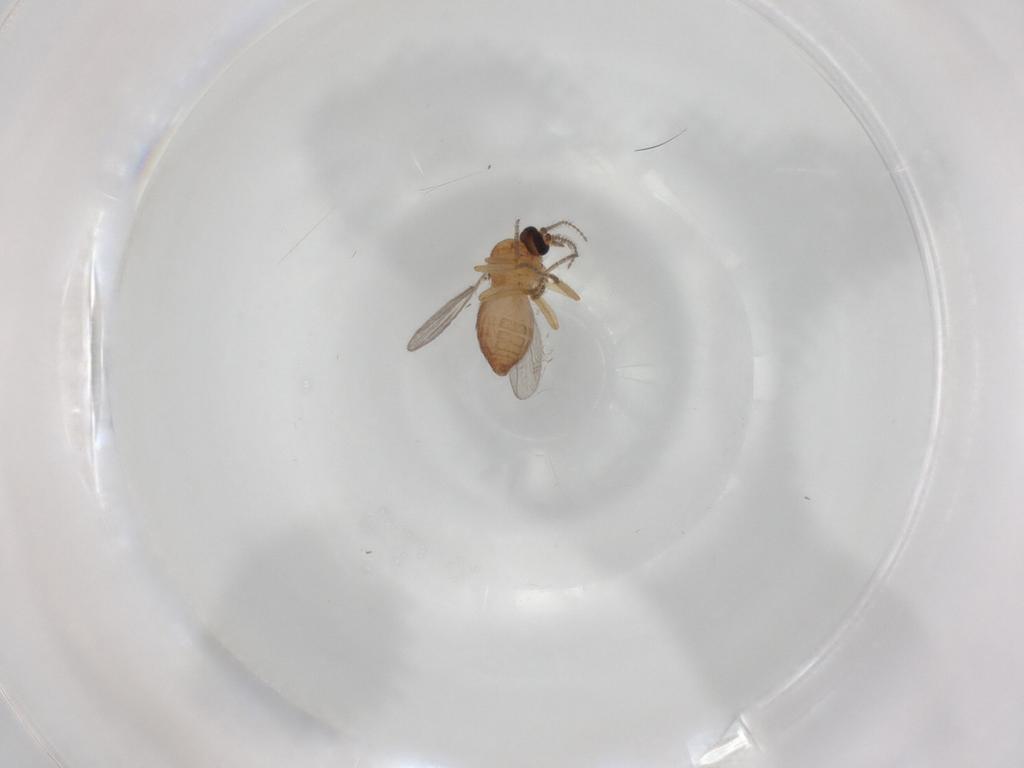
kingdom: Animalia
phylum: Arthropoda
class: Insecta
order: Diptera
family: Ceratopogonidae
